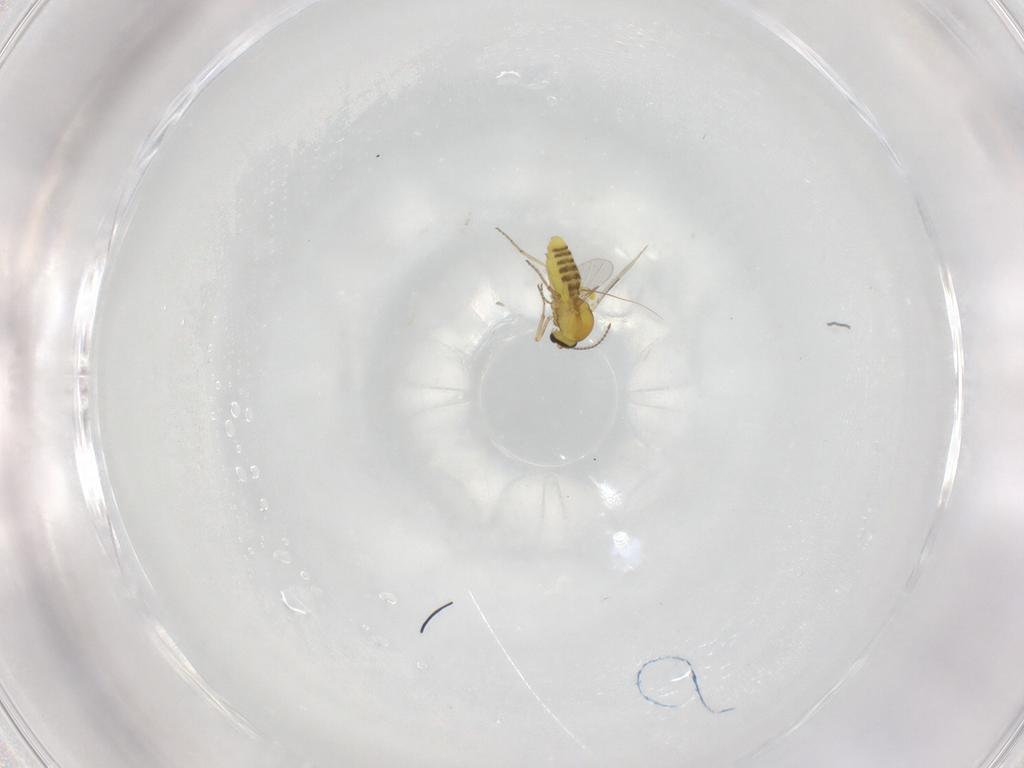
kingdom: Animalia
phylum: Arthropoda
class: Insecta
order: Diptera
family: Ceratopogonidae
